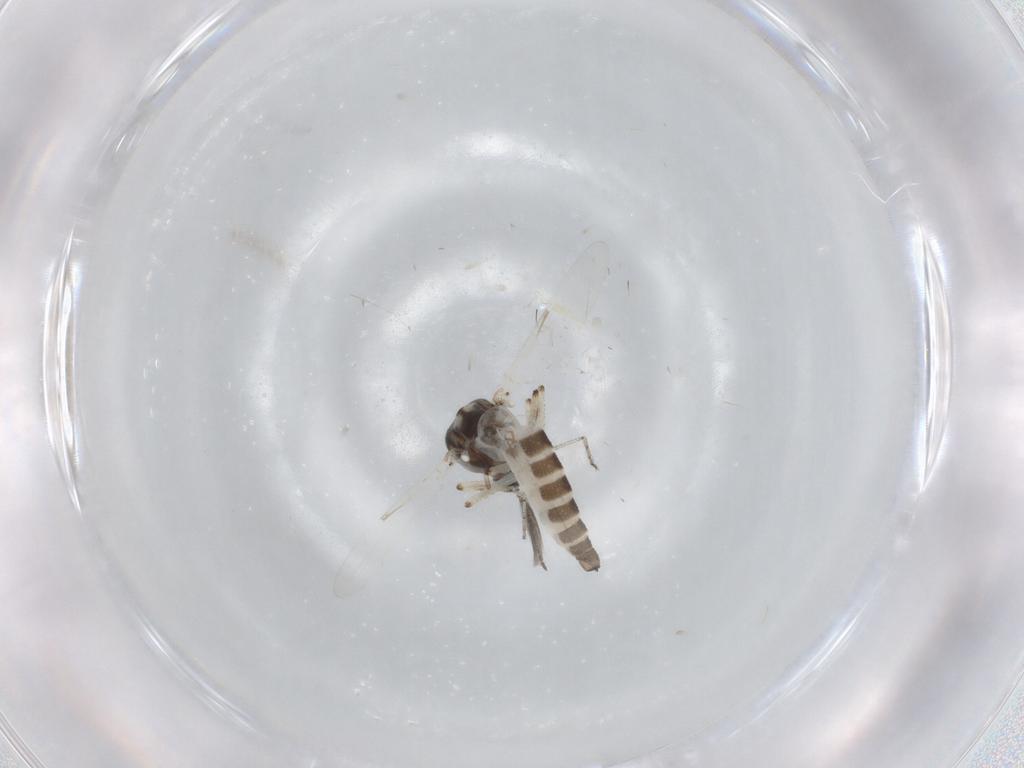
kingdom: Animalia
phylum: Arthropoda
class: Insecta
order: Diptera
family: Ceratopogonidae
